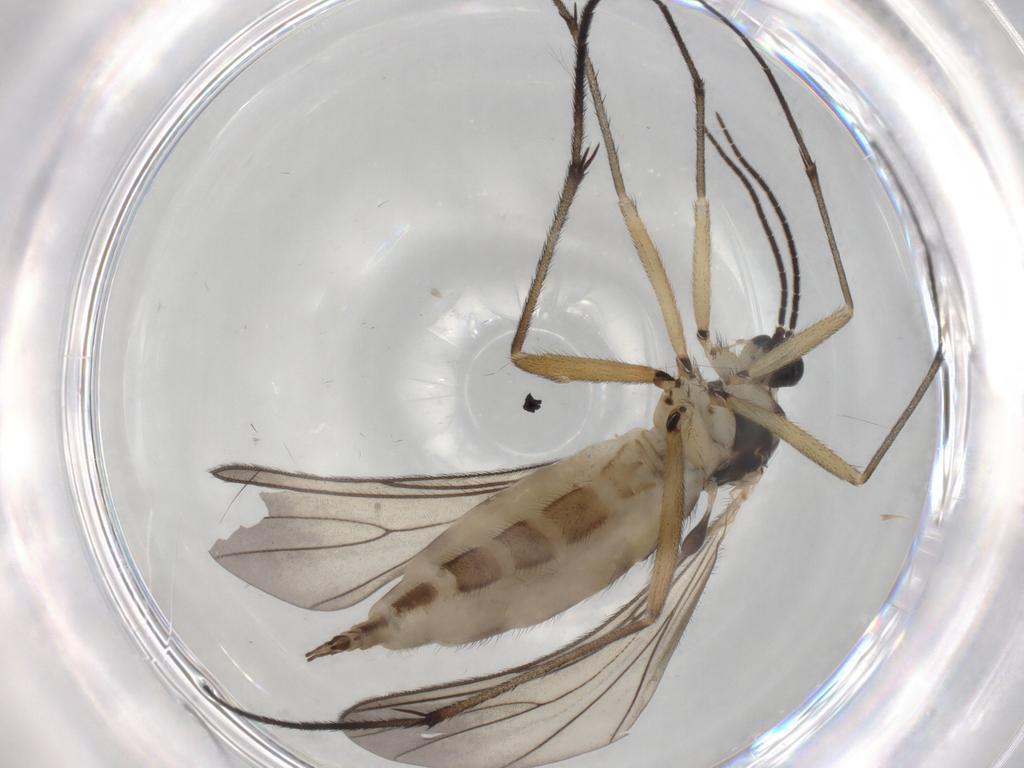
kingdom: Animalia
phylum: Arthropoda
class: Insecta
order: Diptera
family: Sciaridae
